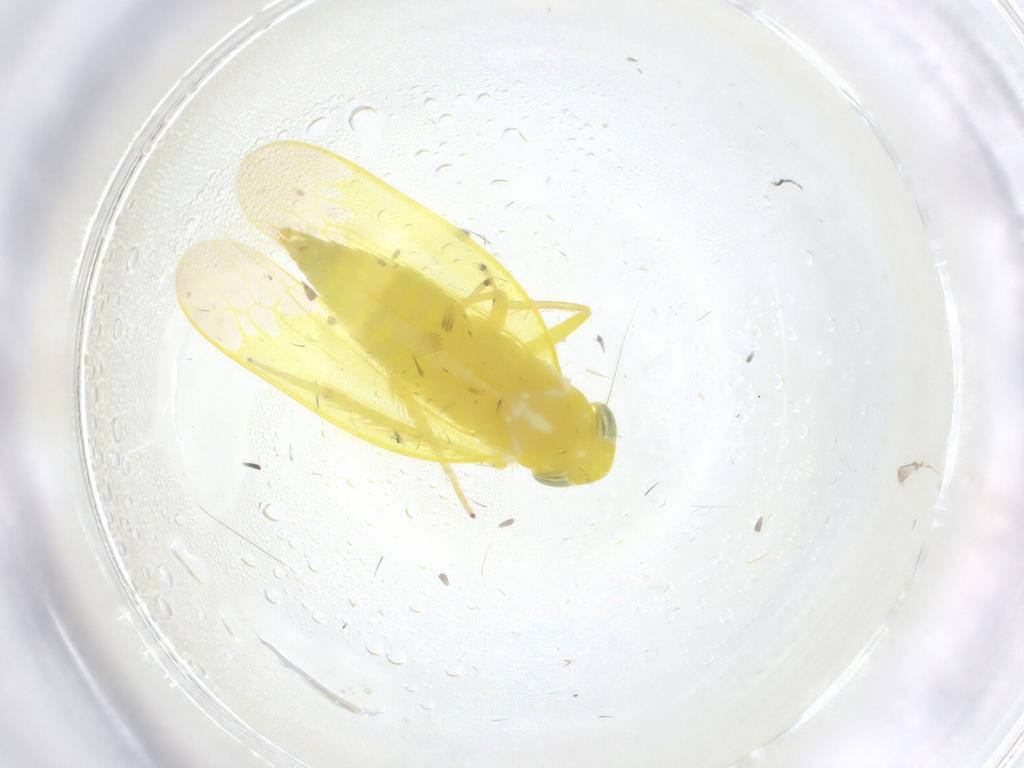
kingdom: Animalia
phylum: Arthropoda
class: Insecta
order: Hemiptera
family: Cicadellidae
